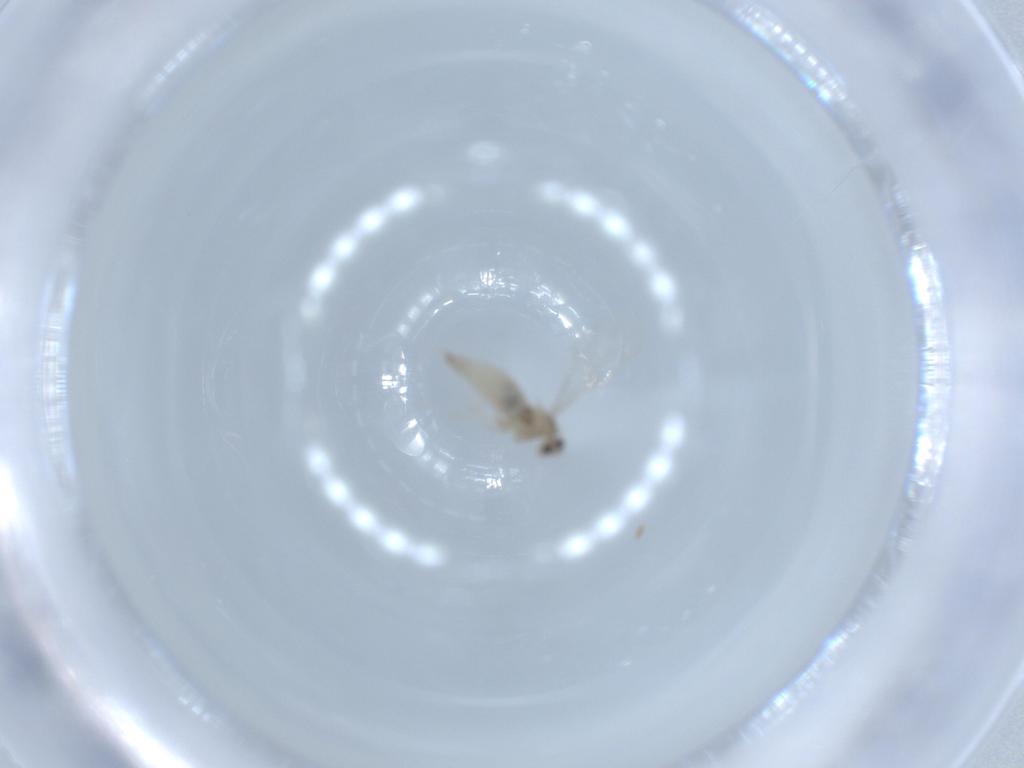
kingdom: Animalia
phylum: Arthropoda
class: Insecta
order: Diptera
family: Cecidomyiidae
